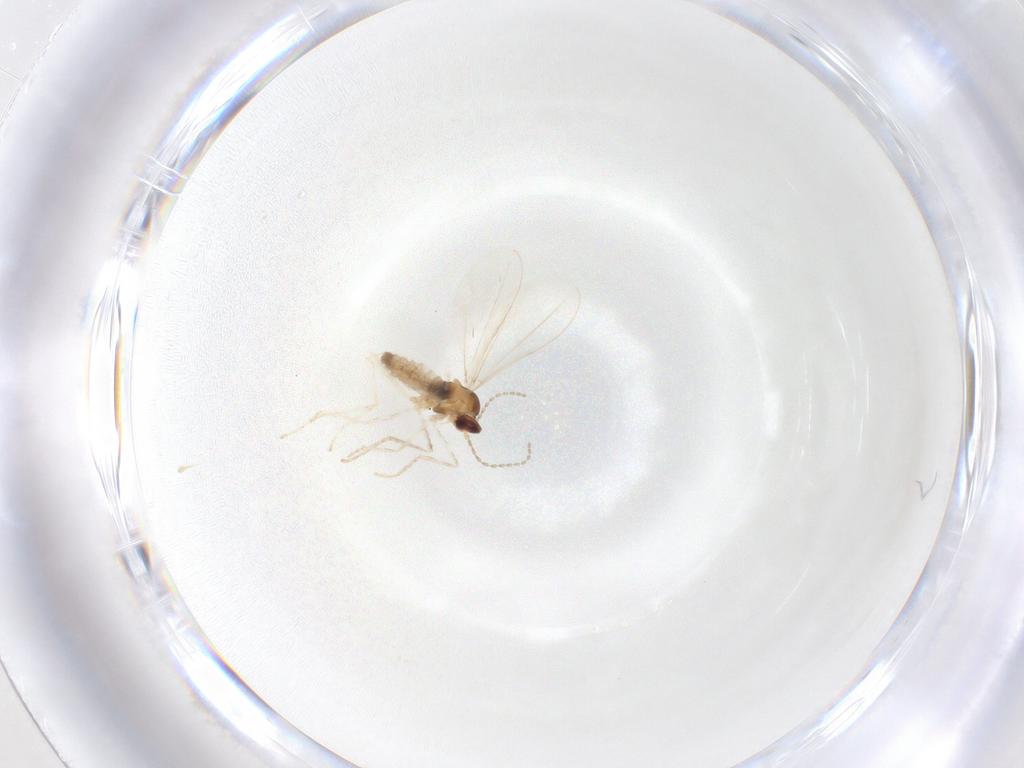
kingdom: Animalia
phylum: Arthropoda
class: Insecta
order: Diptera
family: Cecidomyiidae
